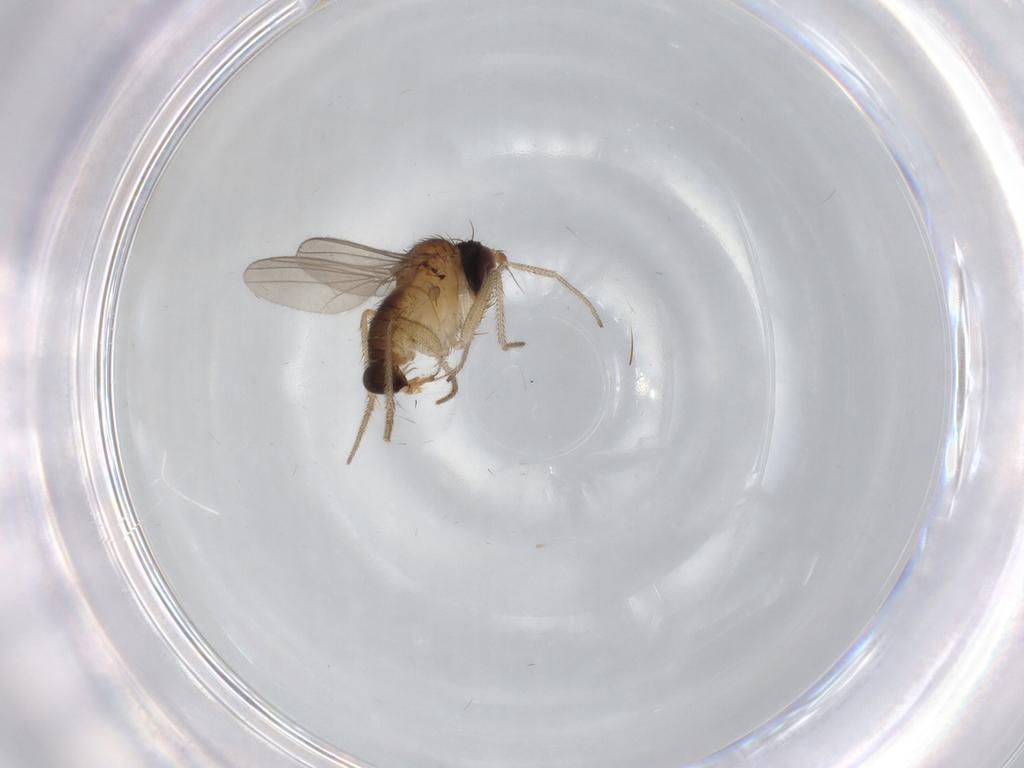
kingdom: Animalia
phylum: Arthropoda
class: Insecta
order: Diptera
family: Dolichopodidae
